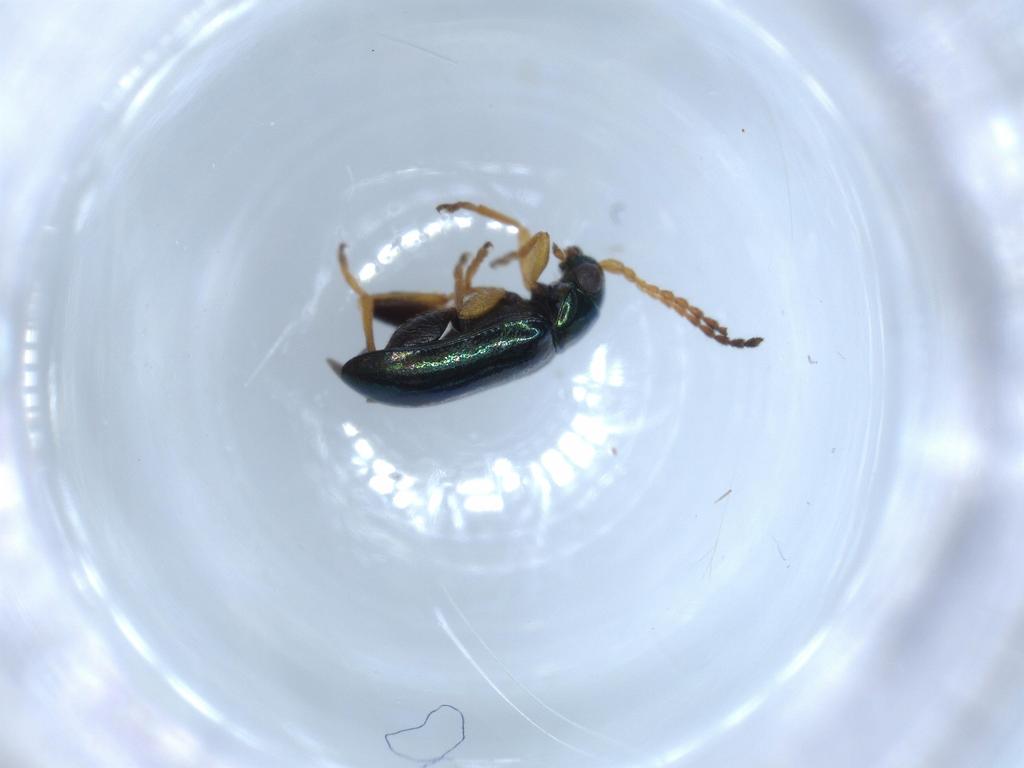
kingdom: Animalia
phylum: Arthropoda
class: Insecta
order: Coleoptera
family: Chrysomelidae
